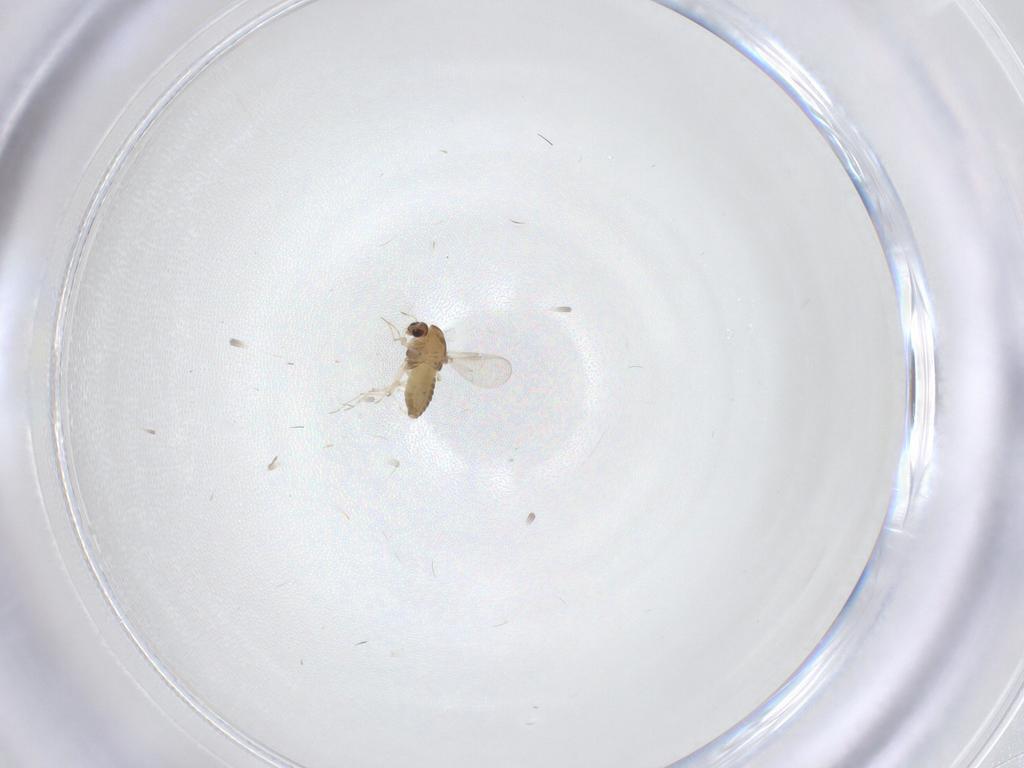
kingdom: Animalia
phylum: Arthropoda
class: Insecta
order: Diptera
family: Chironomidae
